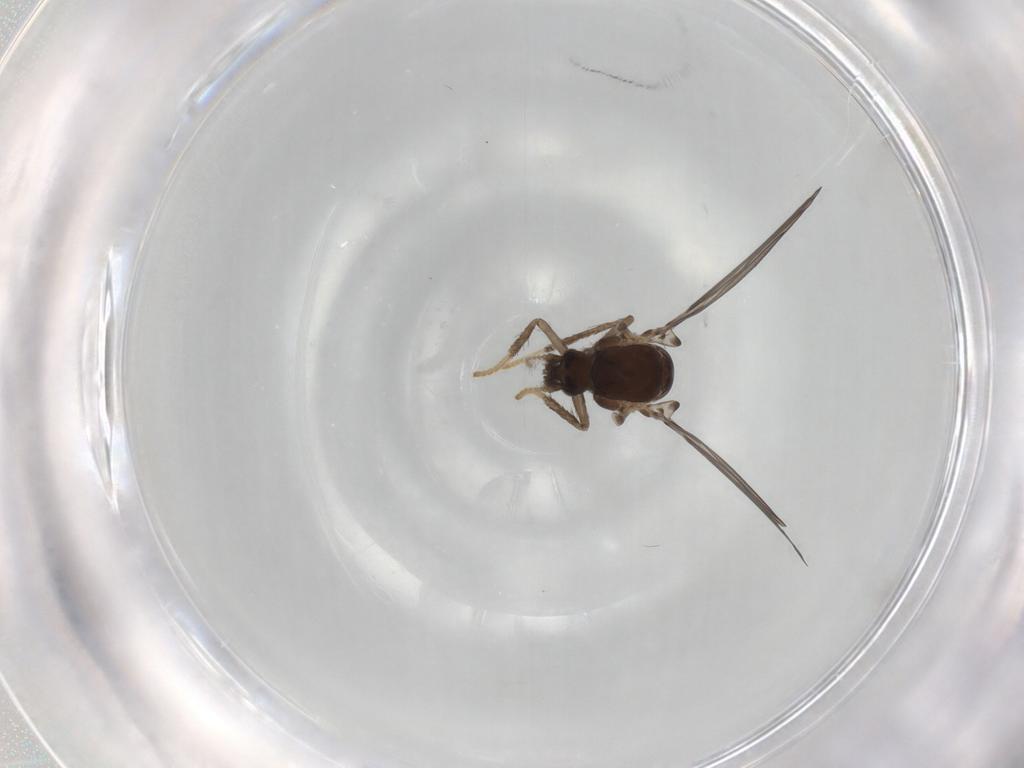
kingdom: Animalia
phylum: Arthropoda
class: Insecta
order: Diptera
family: Psychodidae
